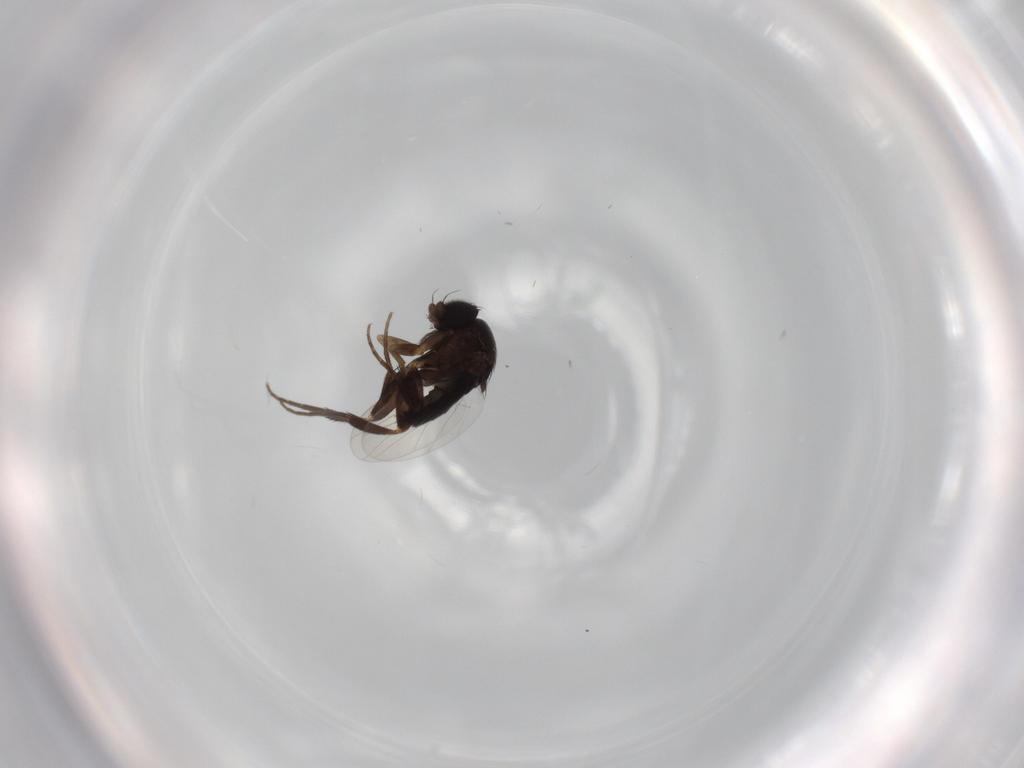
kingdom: Animalia
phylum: Arthropoda
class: Insecta
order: Diptera
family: Phoridae
